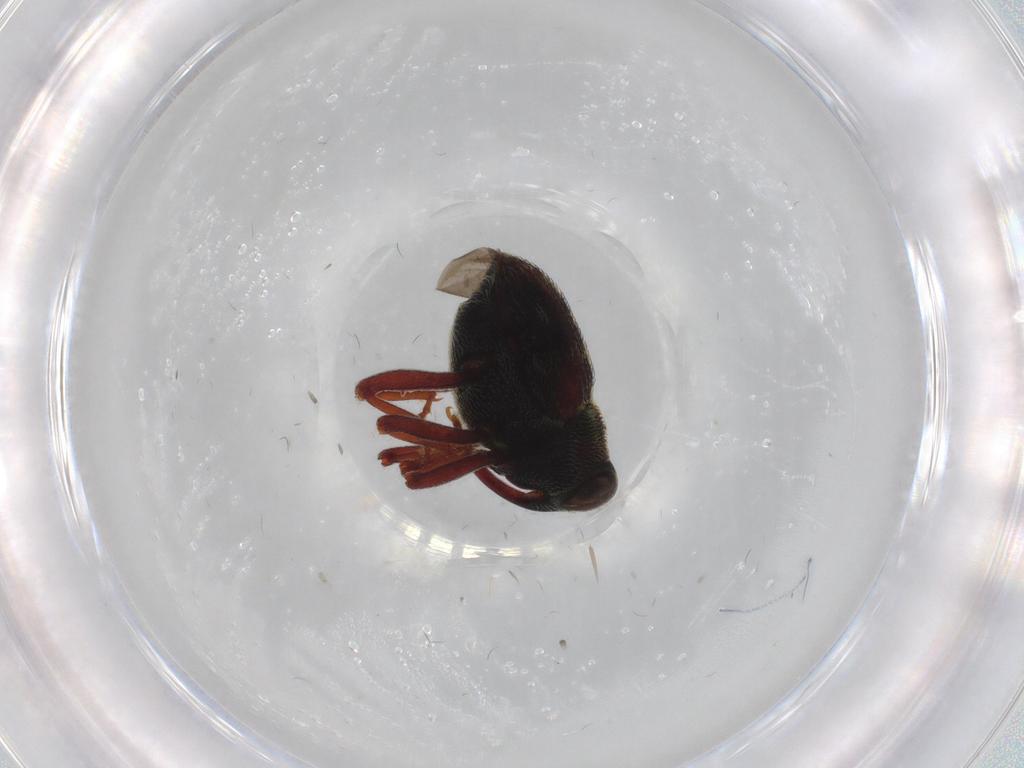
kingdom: Animalia
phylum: Arthropoda
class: Insecta
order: Coleoptera
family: Curculionidae
